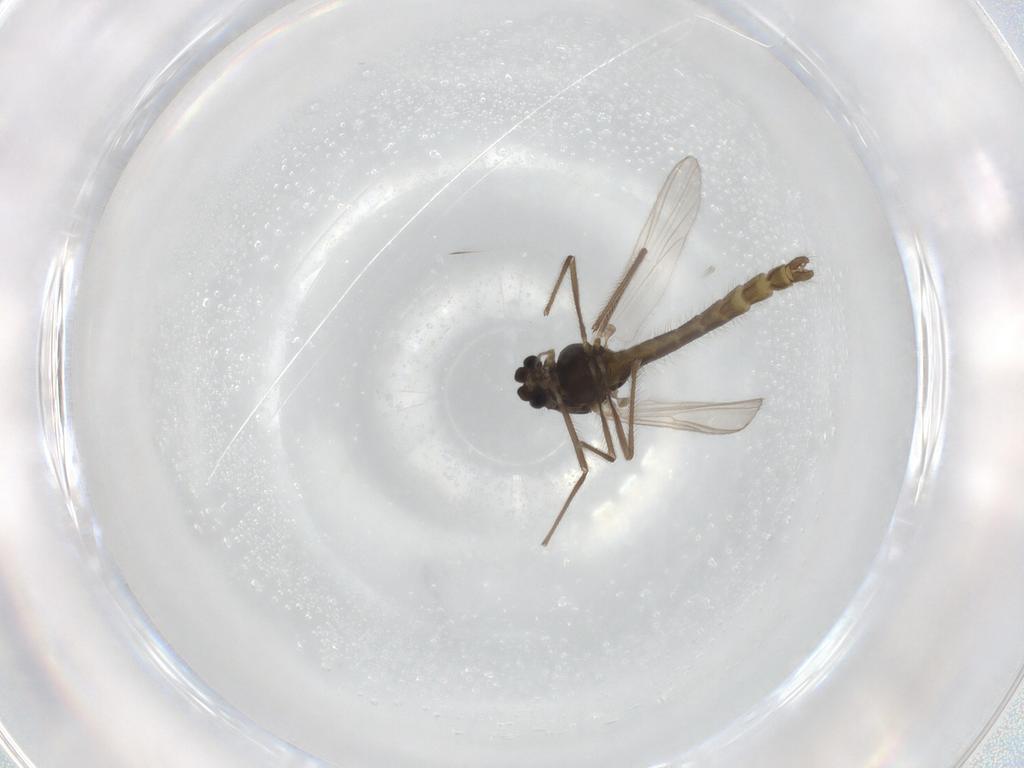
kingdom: Animalia
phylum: Arthropoda
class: Insecta
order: Diptera
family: Chironomidae
